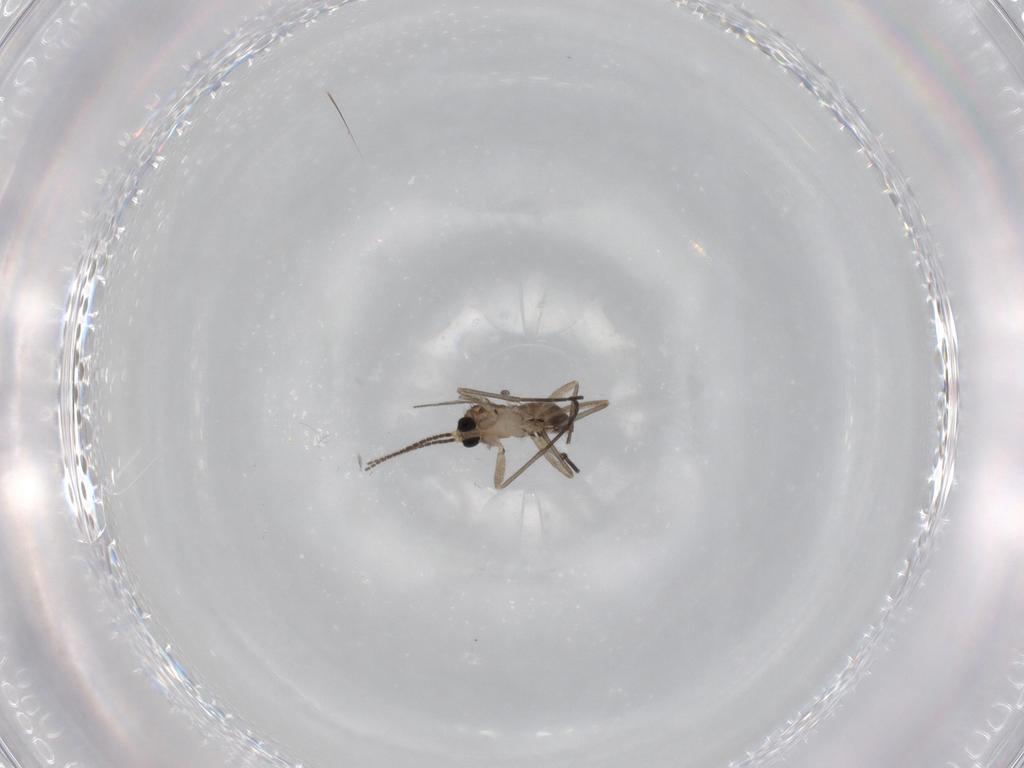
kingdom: Animalia
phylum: Arthropoda
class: Insecta
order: Diptera
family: Sciaridae
